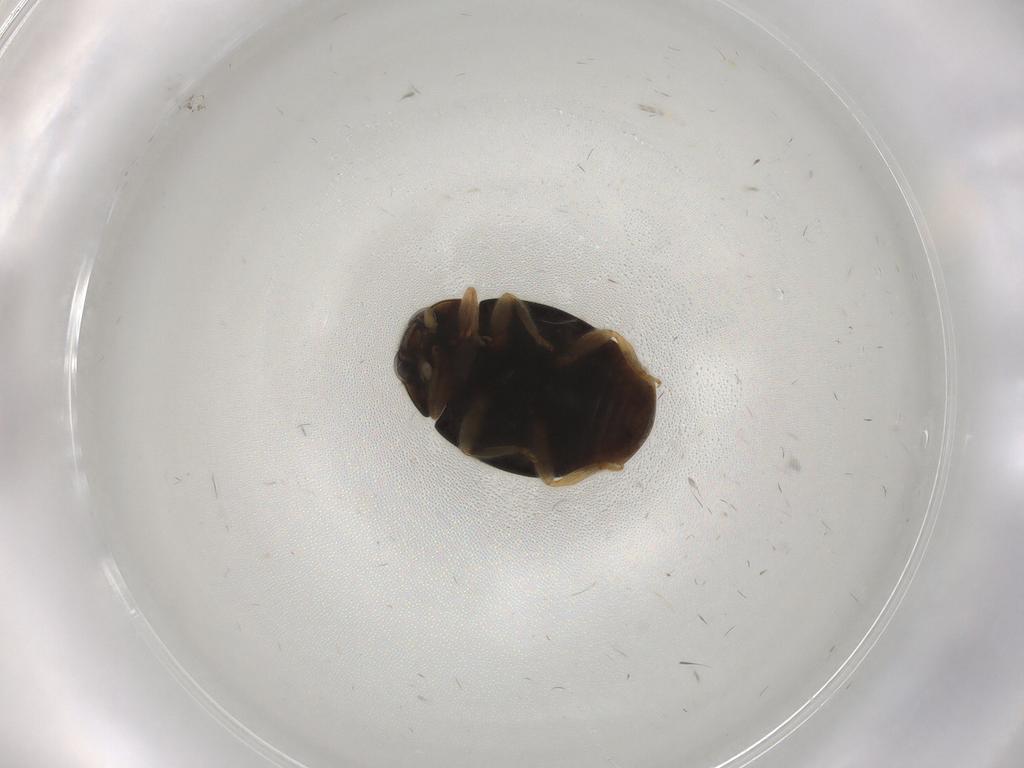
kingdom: Animalia
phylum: Arthropoda
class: Insecta
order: Coleoptera
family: Coccinellidae
